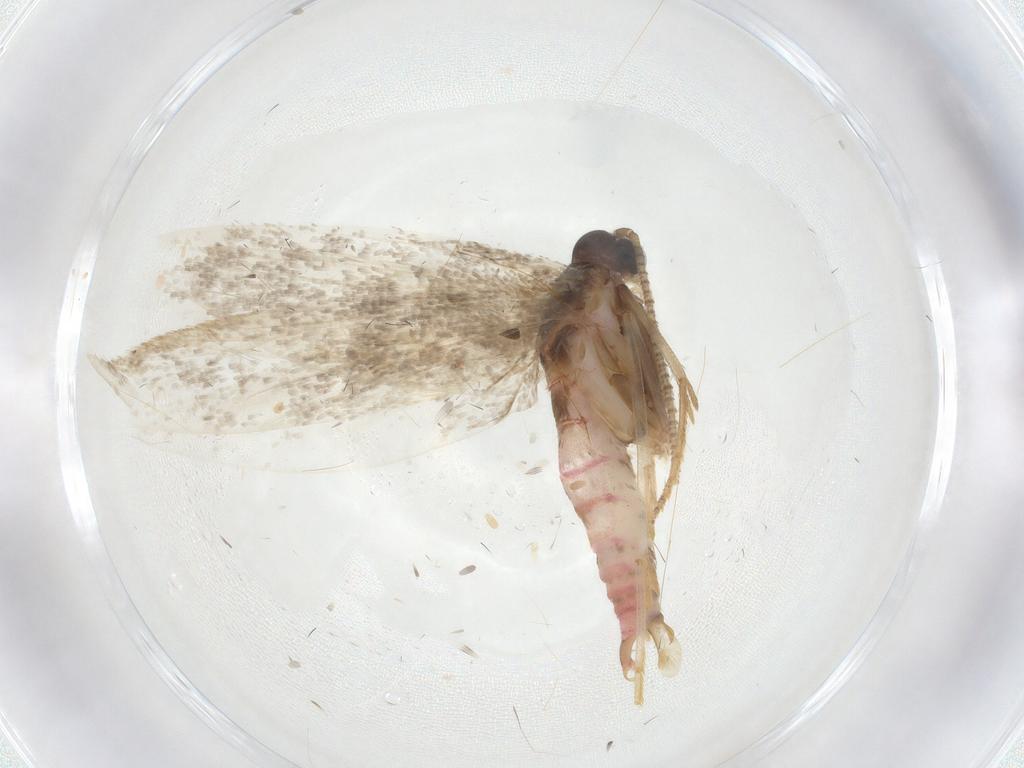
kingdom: Animalia
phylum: Arthropoda
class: Insecta
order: Lepidoptera
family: Autostichidae
